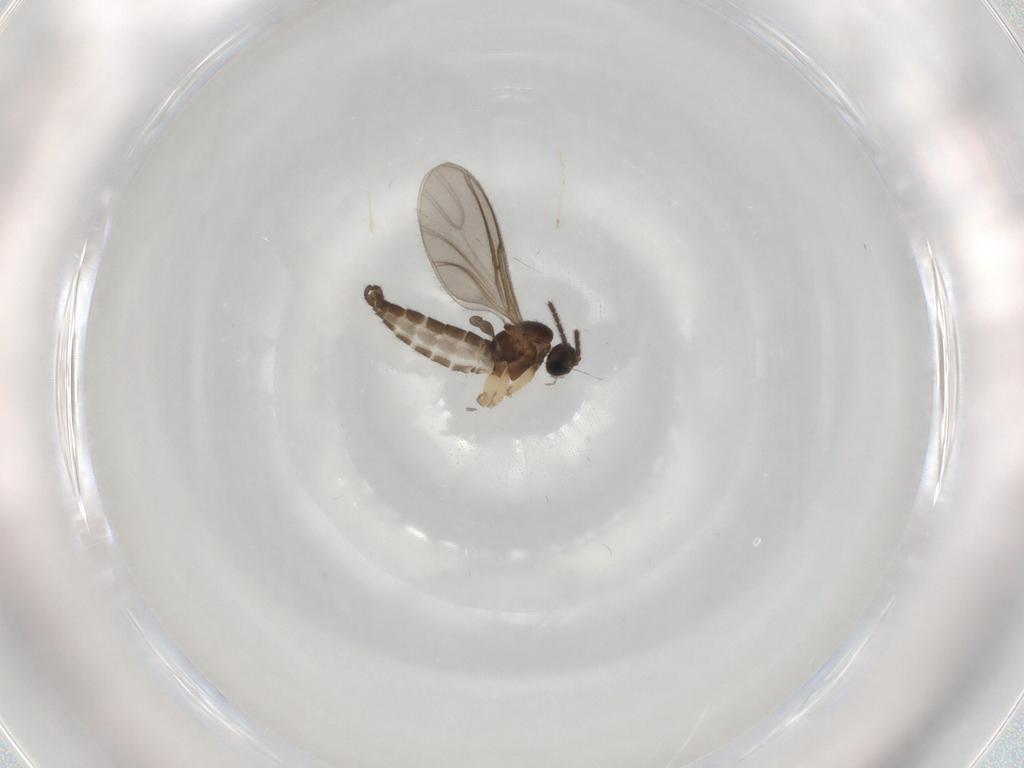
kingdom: Animalia
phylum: Arthropoda
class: Insecta
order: Diptera
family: Sciaridae
